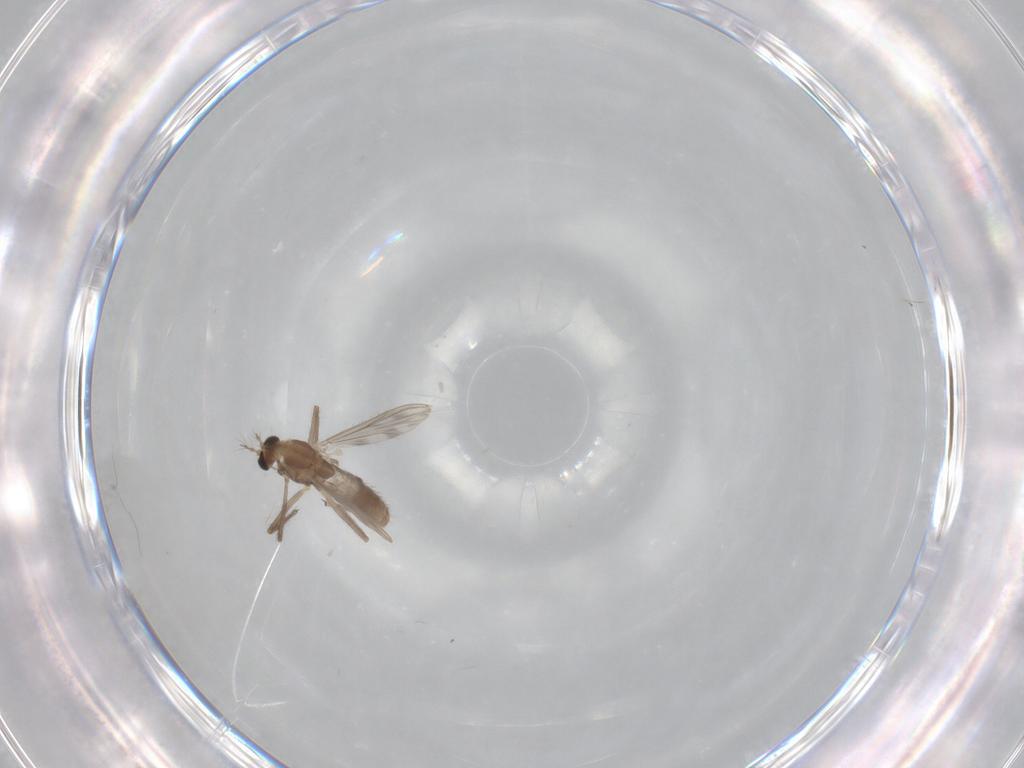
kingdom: Animalia
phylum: Arthropoda
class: Insecta
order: Diptera
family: Chironomidae
